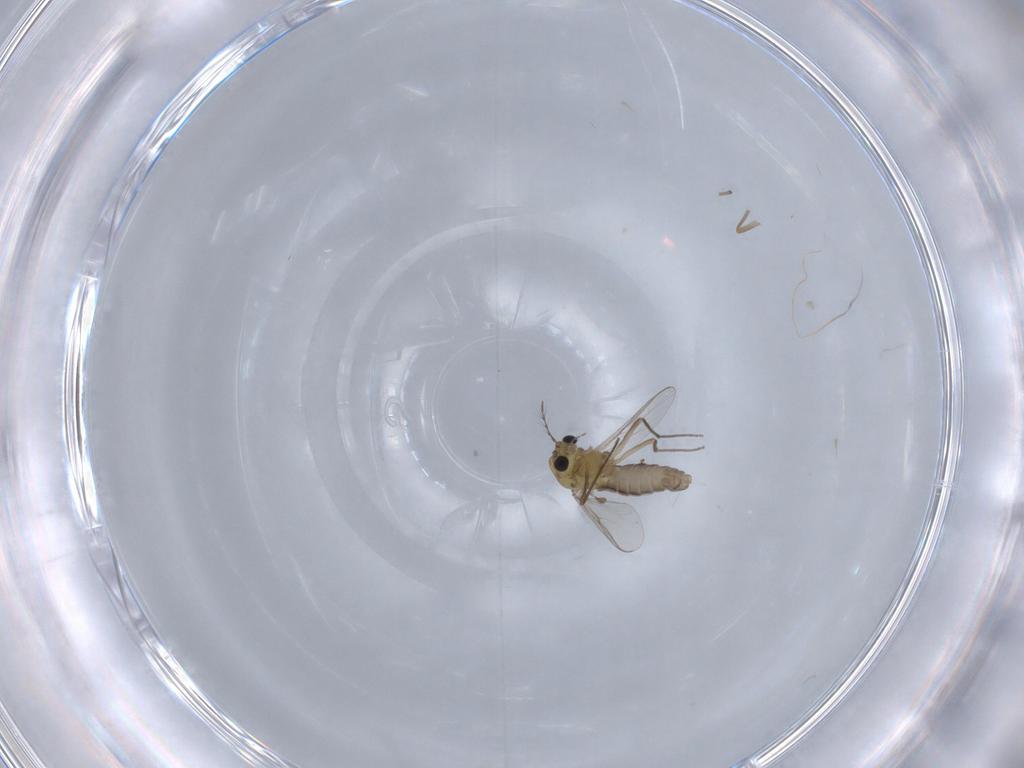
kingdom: Animalia
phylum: Arthropoda
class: Insecta
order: Diptera
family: Chironomidae
